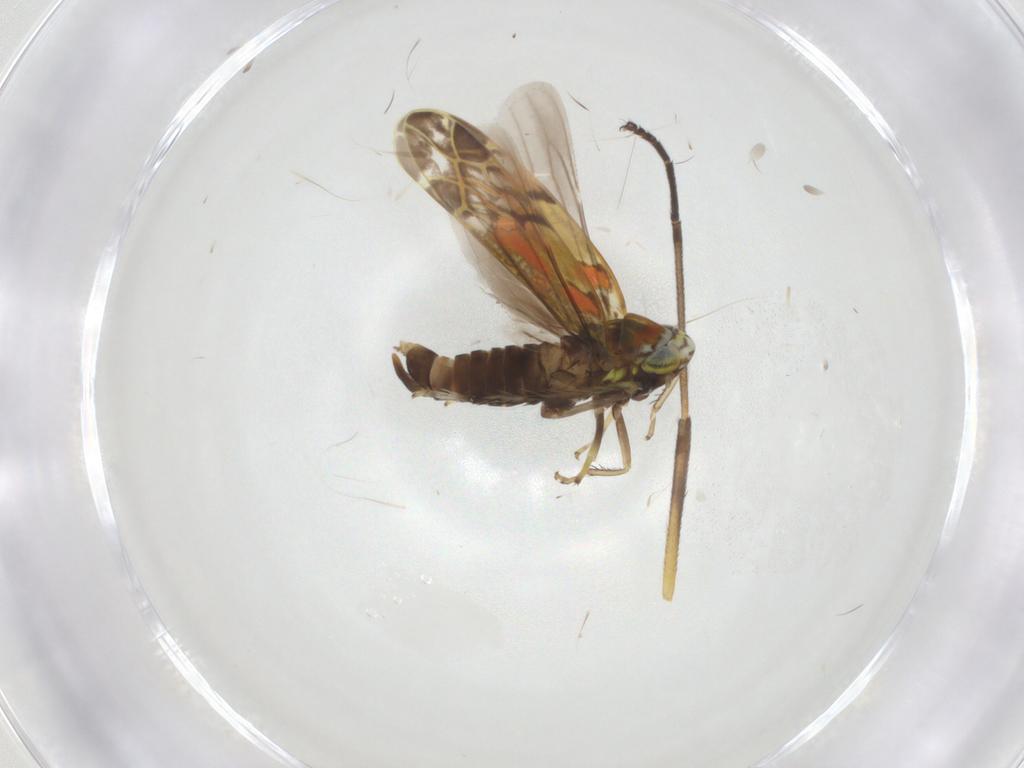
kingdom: Animalia
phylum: Arthropoda
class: Insecta
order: Hemiptera
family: Cicadellidae
